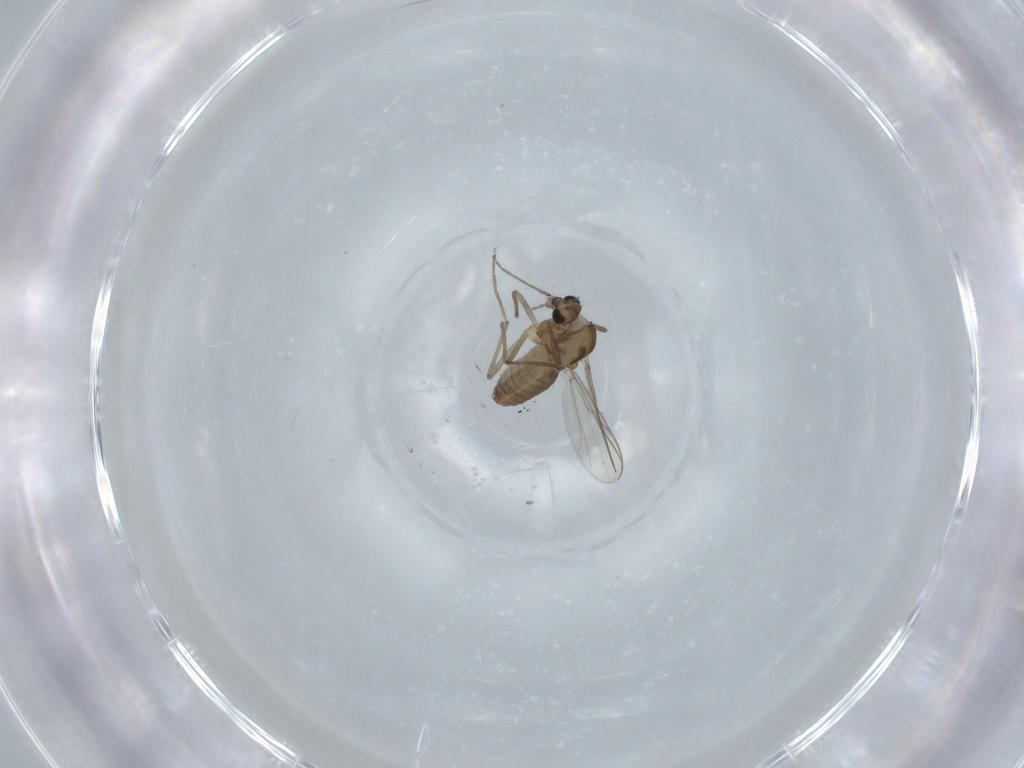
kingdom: Animalia
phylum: Arthropoda
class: Insecta
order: Diptera
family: Chironomidae
